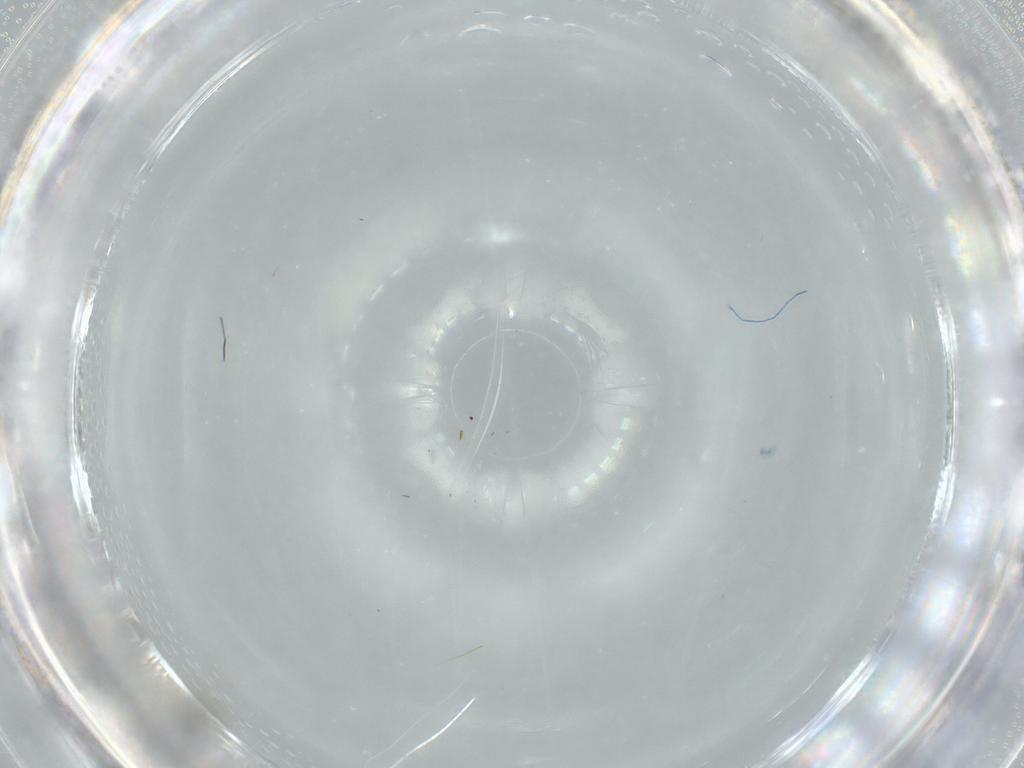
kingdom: Animalia
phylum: Arthropoda
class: Insecta
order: Diptera
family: Cecidomyiidae
